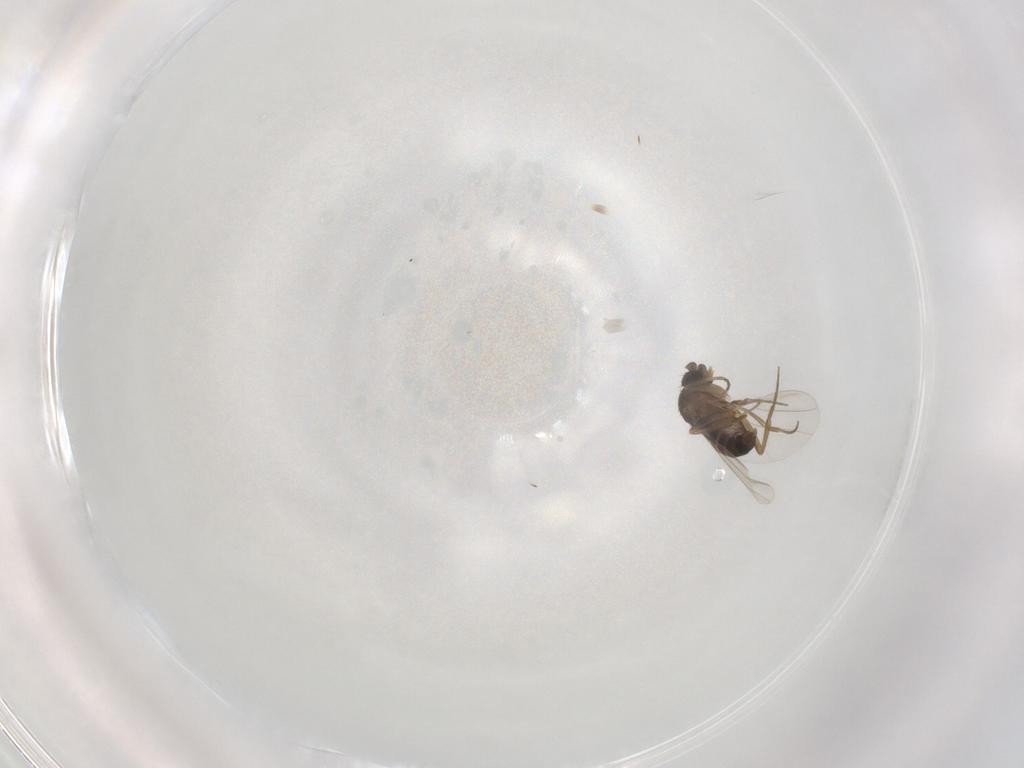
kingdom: Animalia
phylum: Arthropoda
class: Insecta
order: Diptera
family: Phoridae
